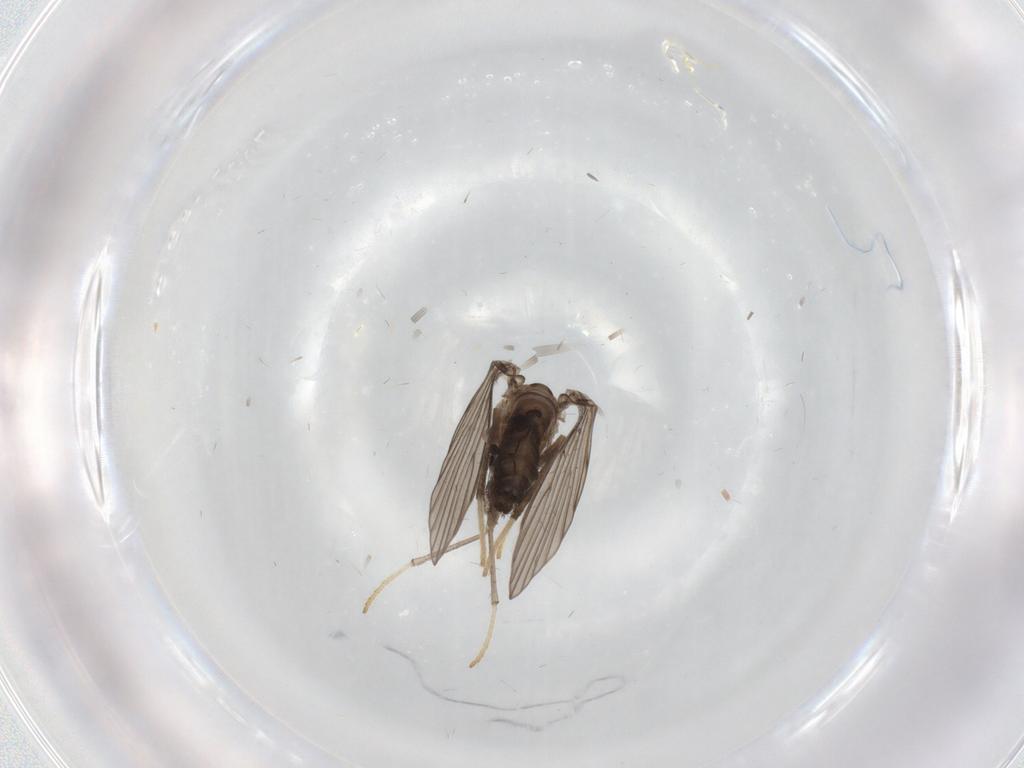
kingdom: Animalia
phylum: Arthropoda
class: Insecta
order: Diptera
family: Psychodidae
